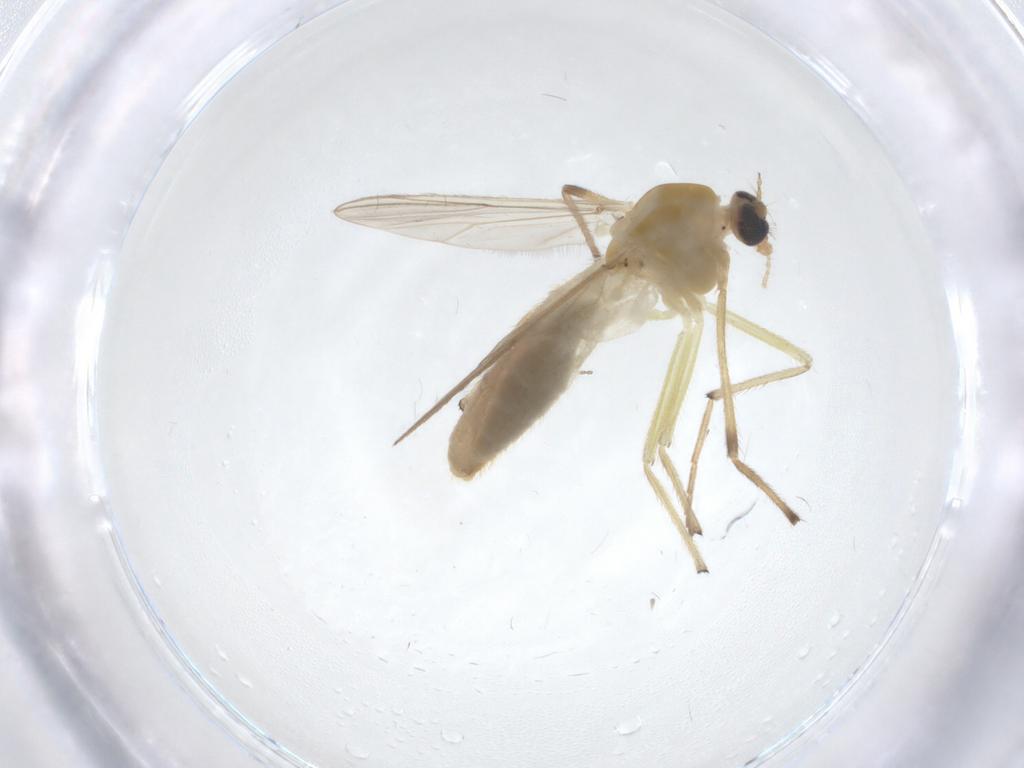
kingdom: Animalia
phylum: Arthropoda
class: Insecta
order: Diptera
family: Chironomidae
